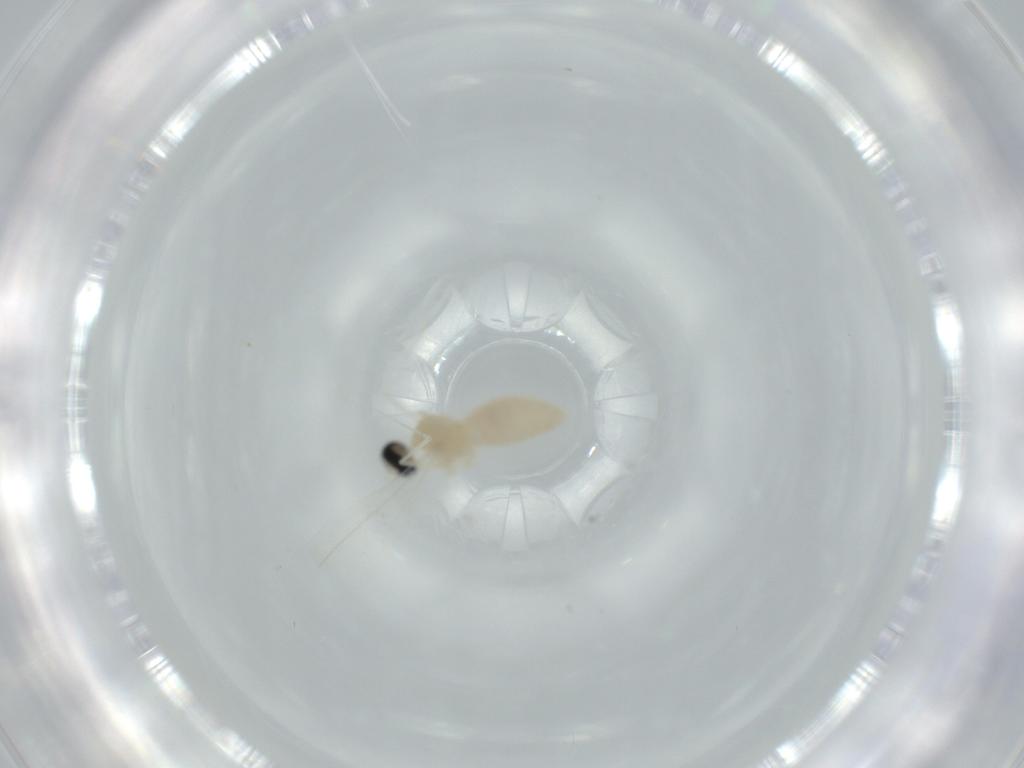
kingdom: Animalia
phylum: Arthropoda
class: Insecta
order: Diptera
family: Cecidomyiidae
